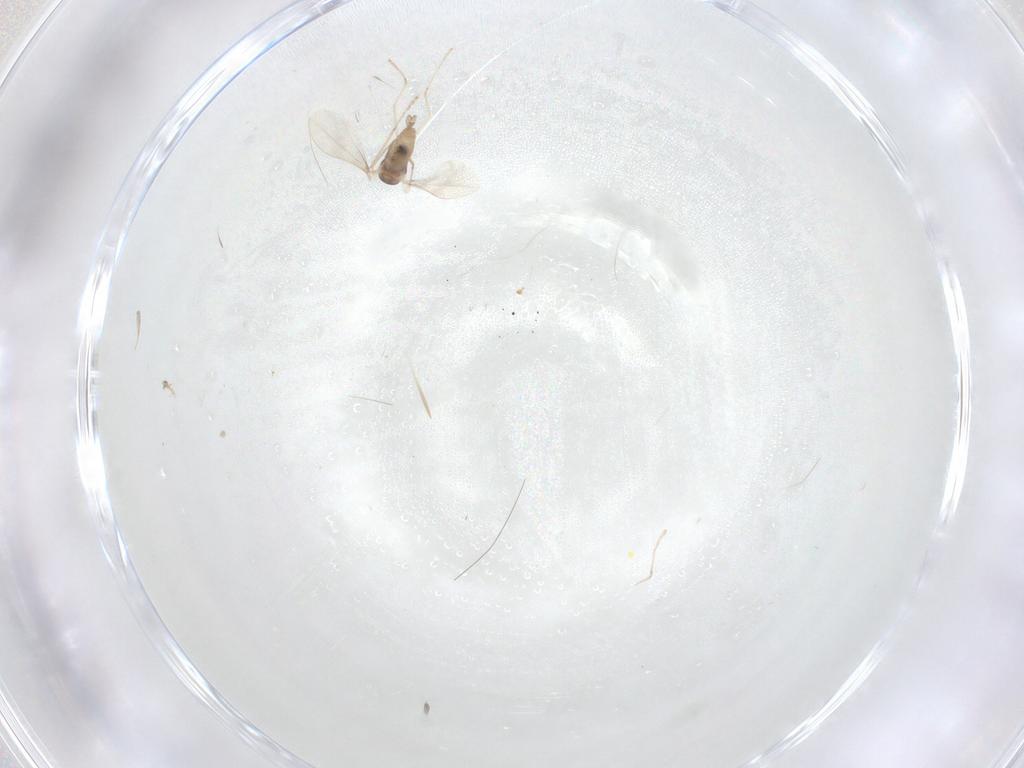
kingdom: Animalia
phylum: Arthropoda
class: Insecta
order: Diptera
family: Cecidomyiidae
